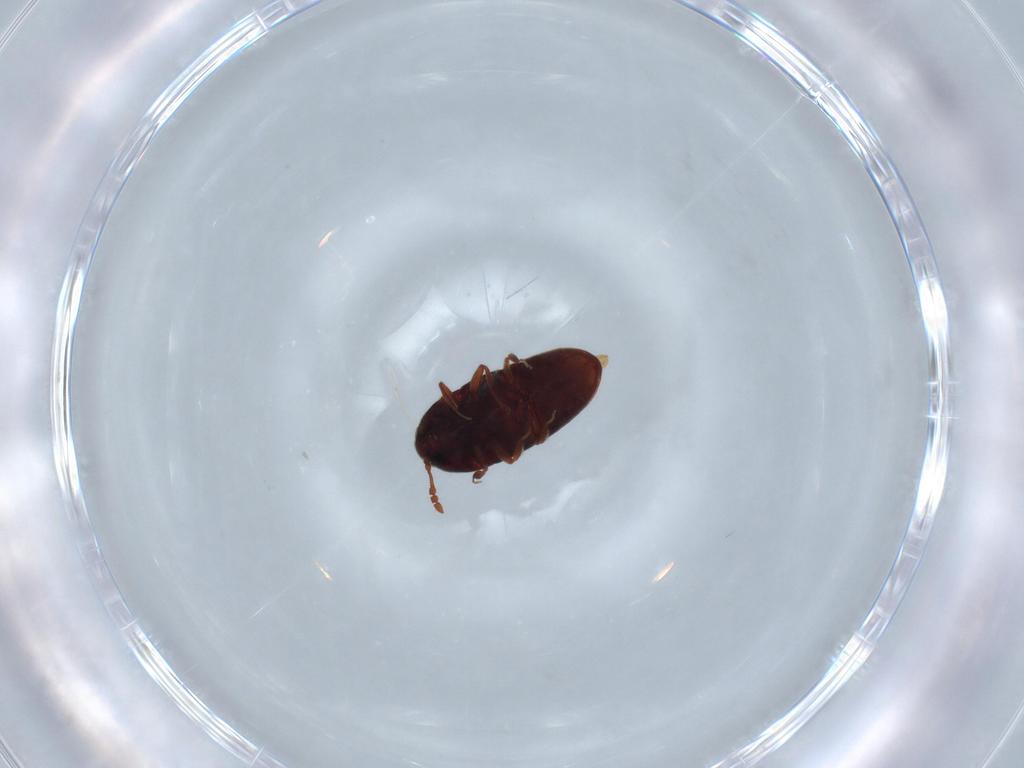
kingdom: Animalia
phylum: Arthropoda
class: Insecta
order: Coleoptera
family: Throscidae
